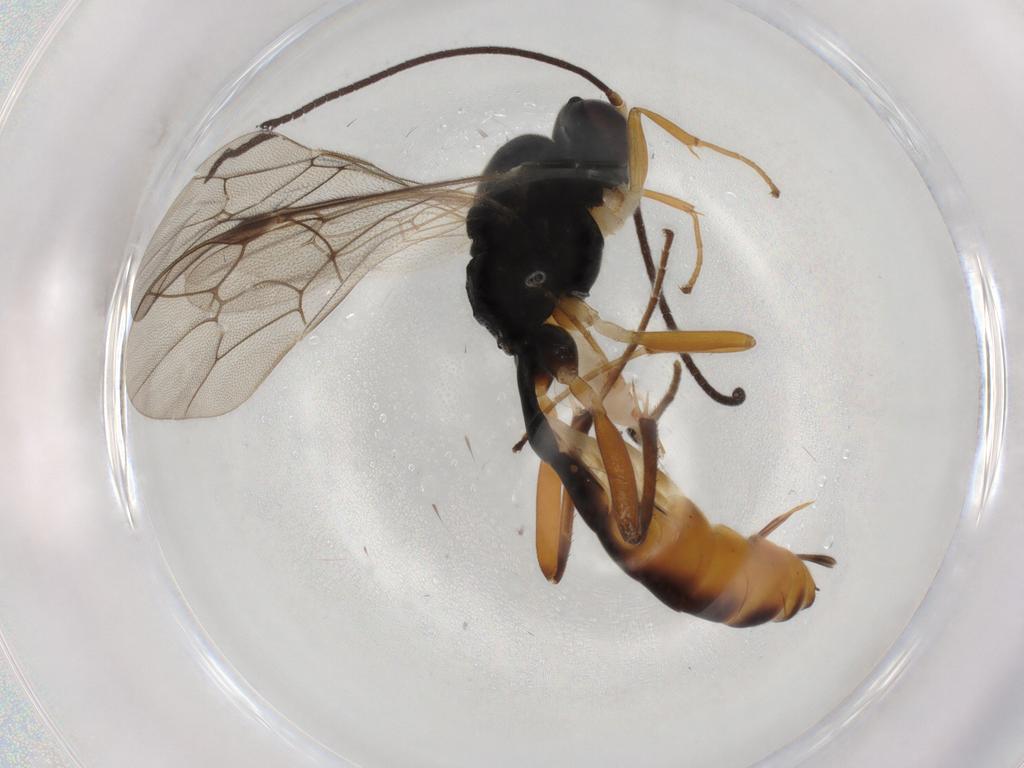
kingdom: Animalia
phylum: Arthropoda
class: Insecta
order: Hymenoptera
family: Ichneumonidae
